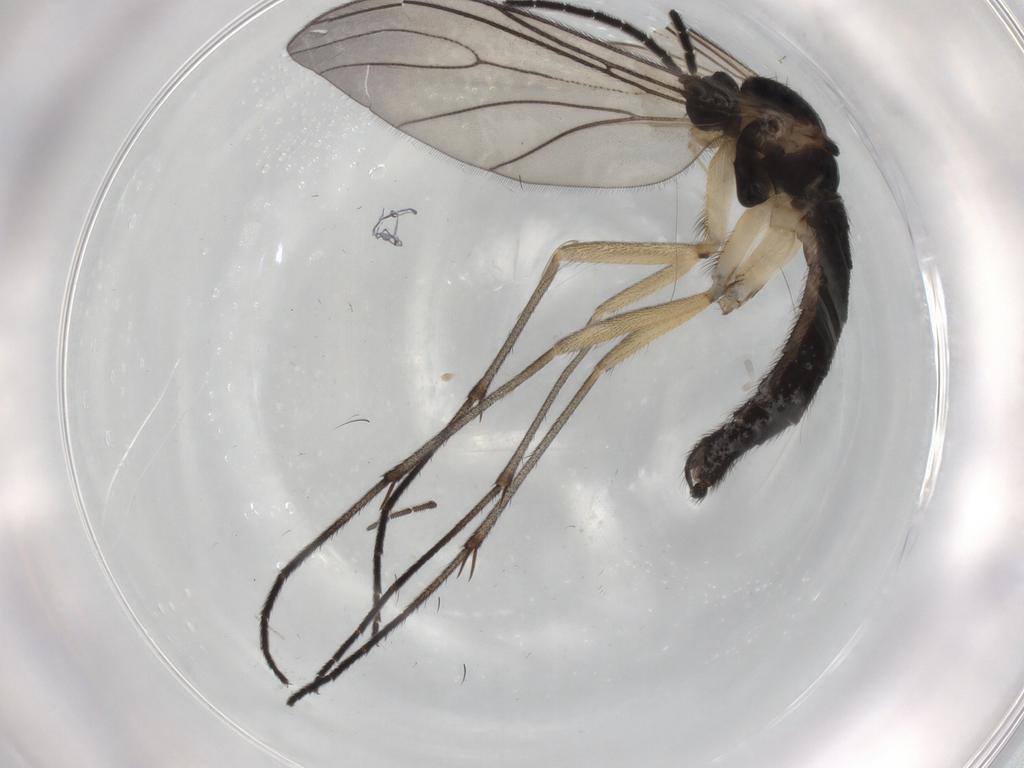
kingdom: Animalia
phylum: Arthropoda
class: Insecta
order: Diptera
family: Sciaridae
